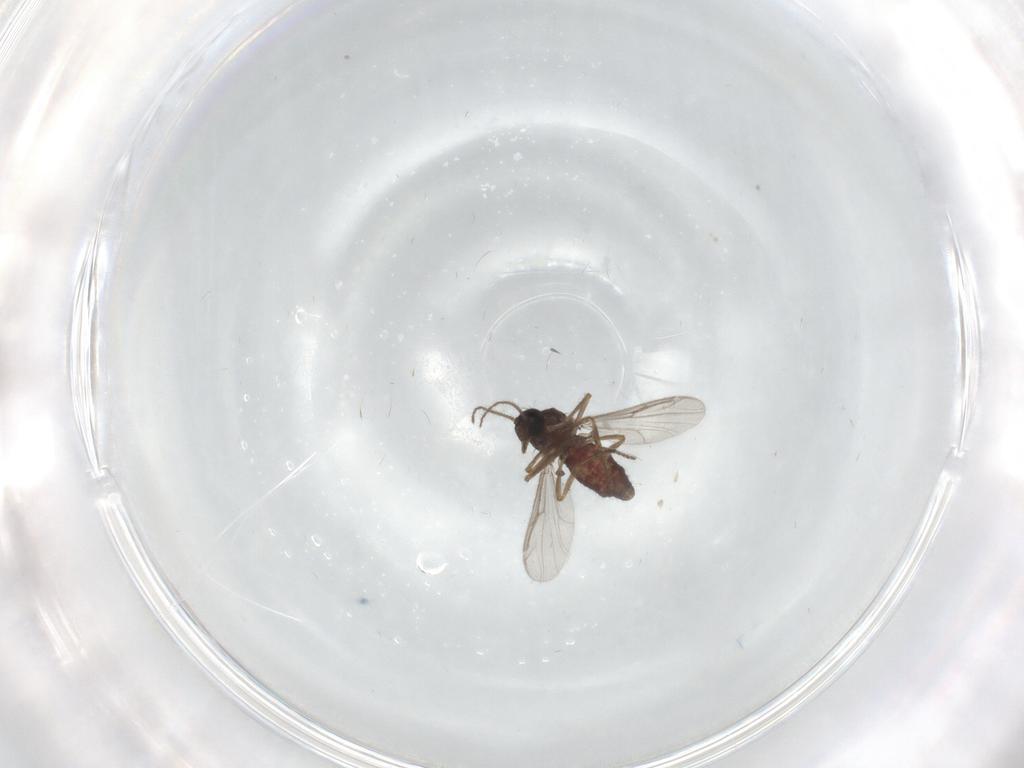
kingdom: Animalia
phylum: Arthropoda
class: Insecta
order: Diptera
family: Ceratopogonidae
